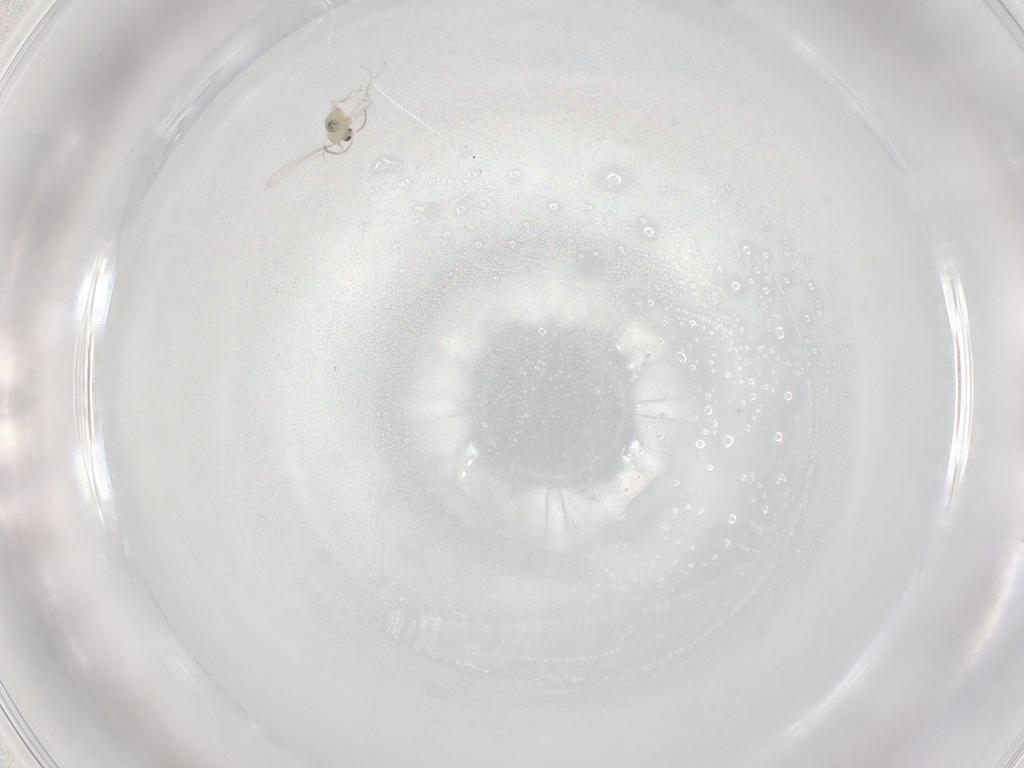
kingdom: Animalia
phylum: Arthropoda
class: Insecta
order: Diptera
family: Cecidomyiidae
